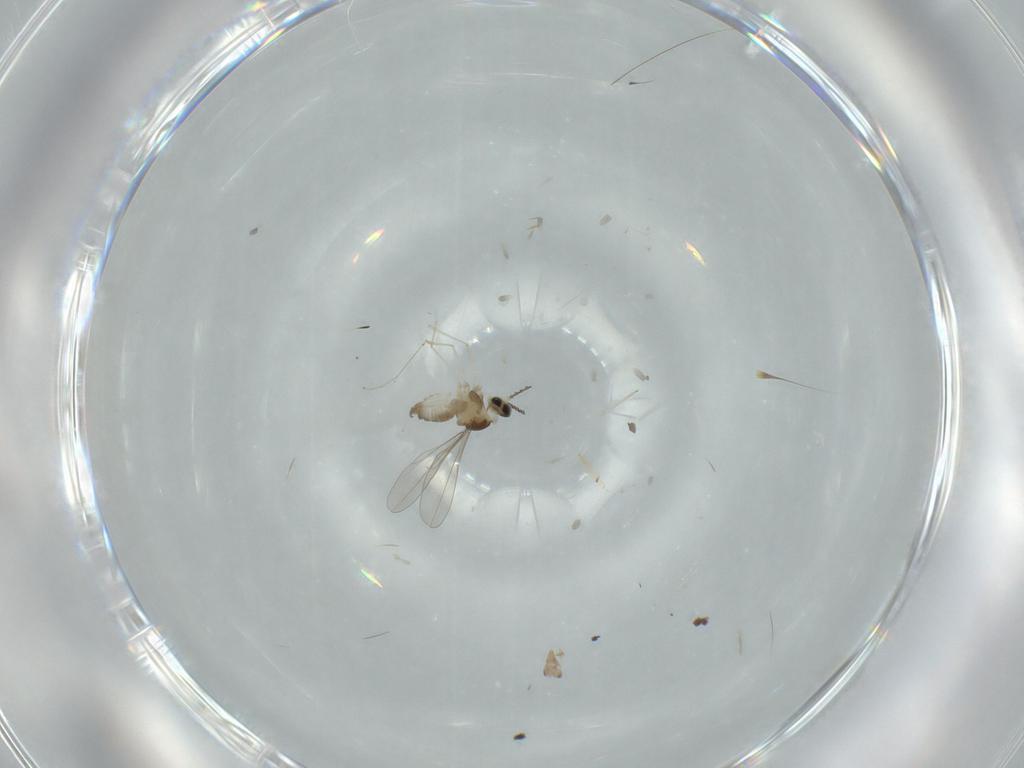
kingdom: Animalia
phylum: Arthropoda
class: Insecta
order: Diptera
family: Cecidomyiidae
